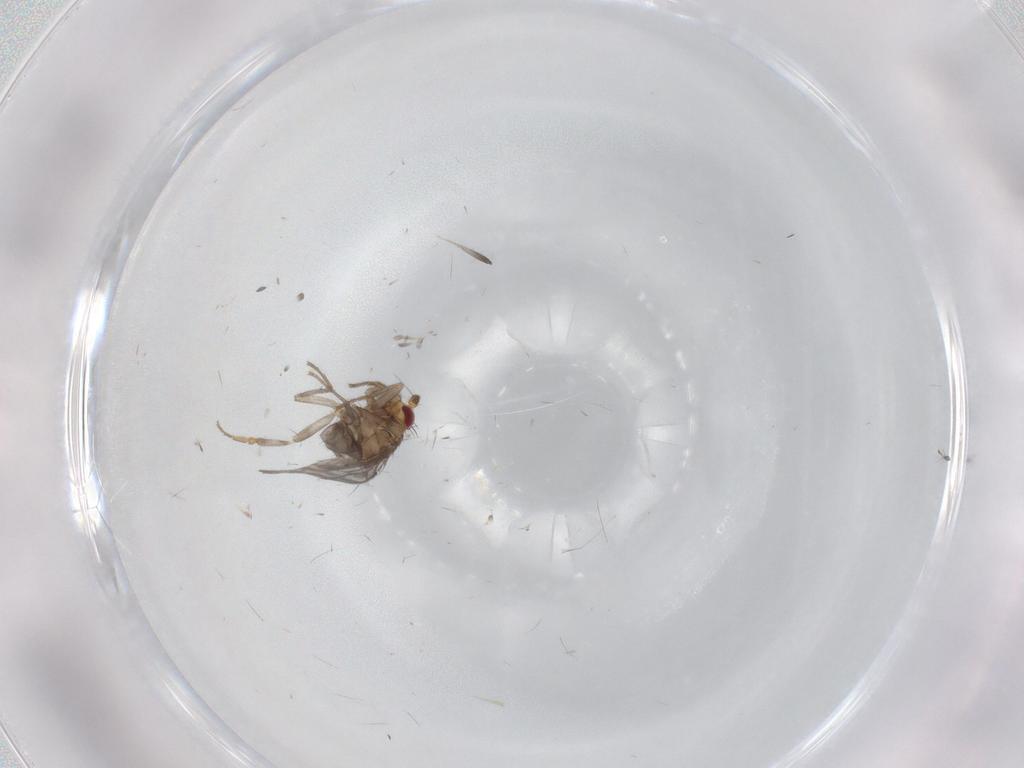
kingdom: Animalia
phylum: Arthropoda
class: Insecta
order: Diptera
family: Sphaeroceridae
